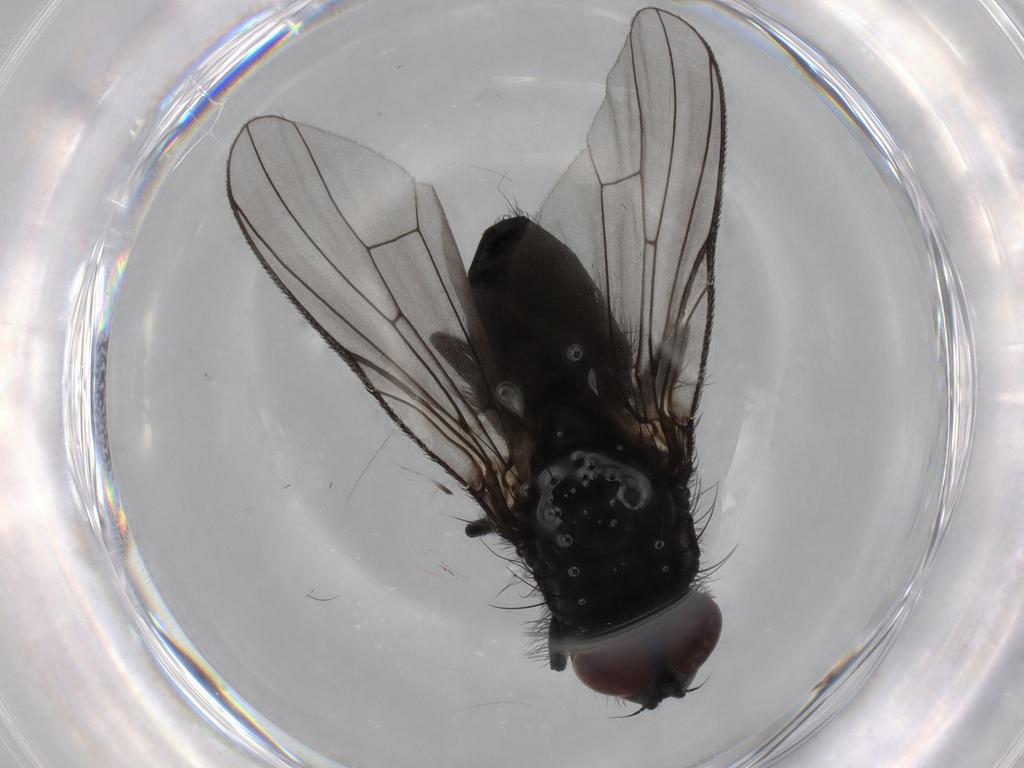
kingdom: Animalia
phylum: Arthropoda
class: Insecta
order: Diptera
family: Muscidae
